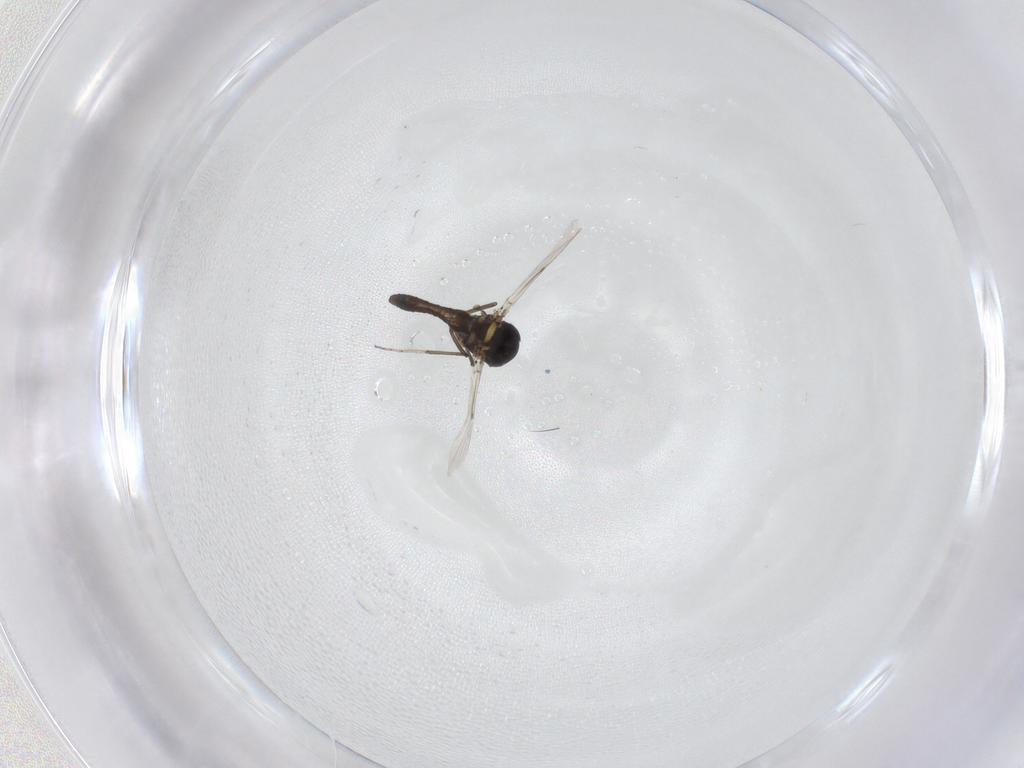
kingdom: Animalia
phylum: Arthropoda
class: Insecta
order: Diptera
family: Ceratopogonidae
